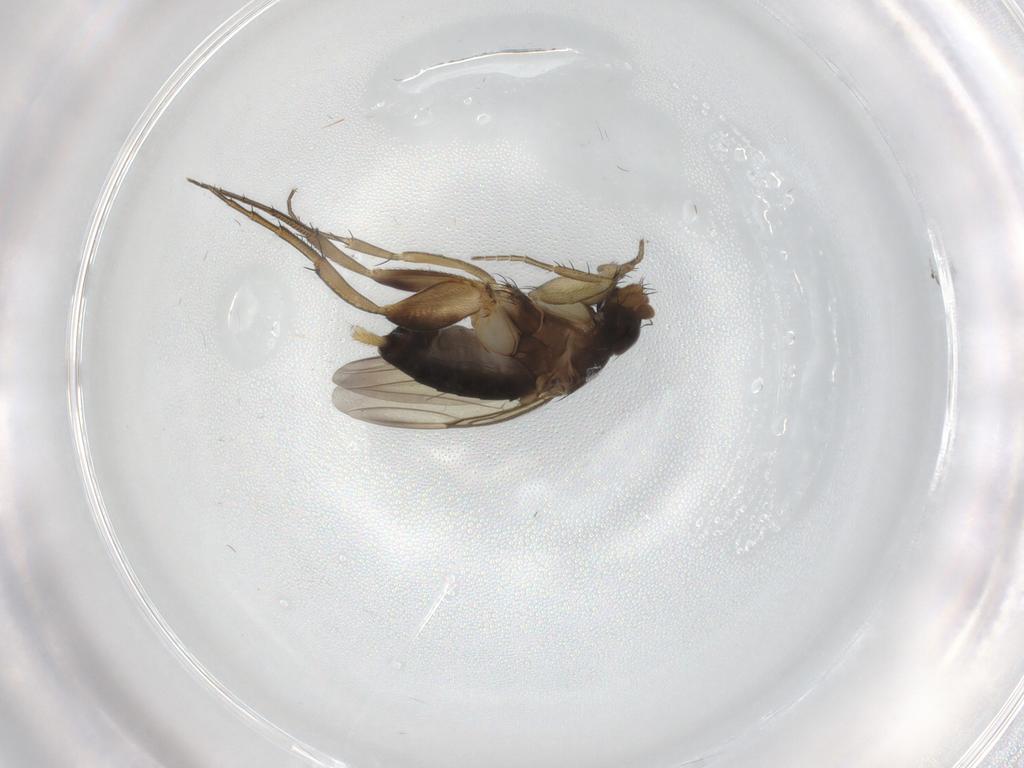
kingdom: Animalia
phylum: Arthropoda
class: Insecta
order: Diptera
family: Phoridae
